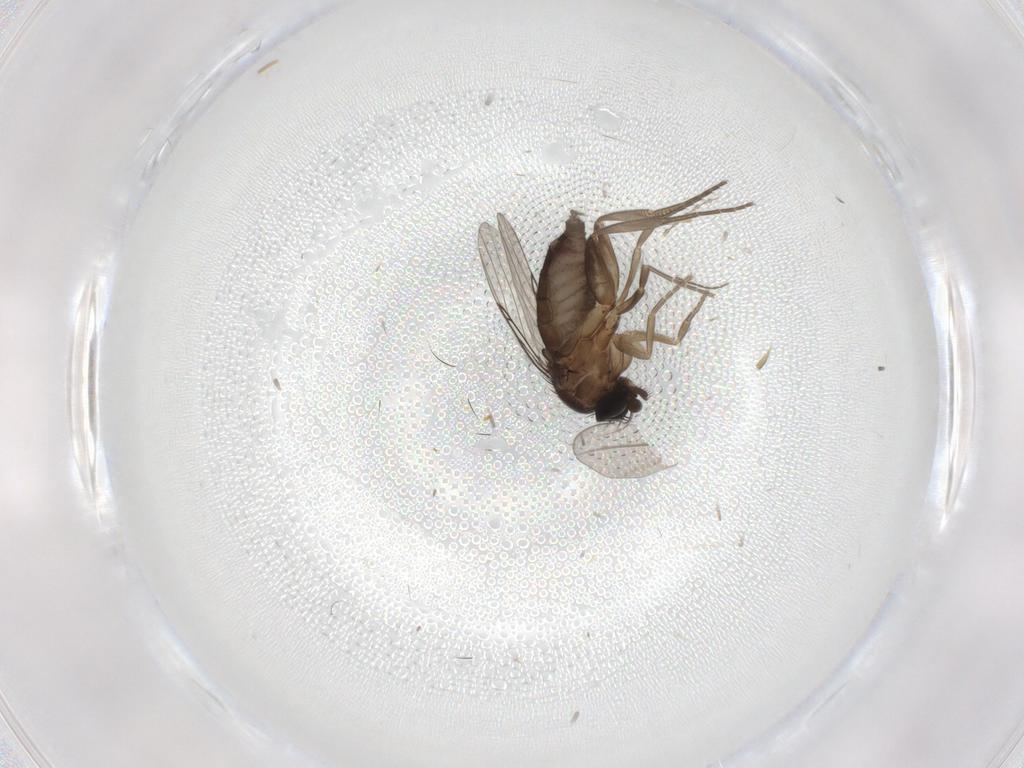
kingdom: Animalia
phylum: Arthropoda
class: Insecta
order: Diptera
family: Phoridae
